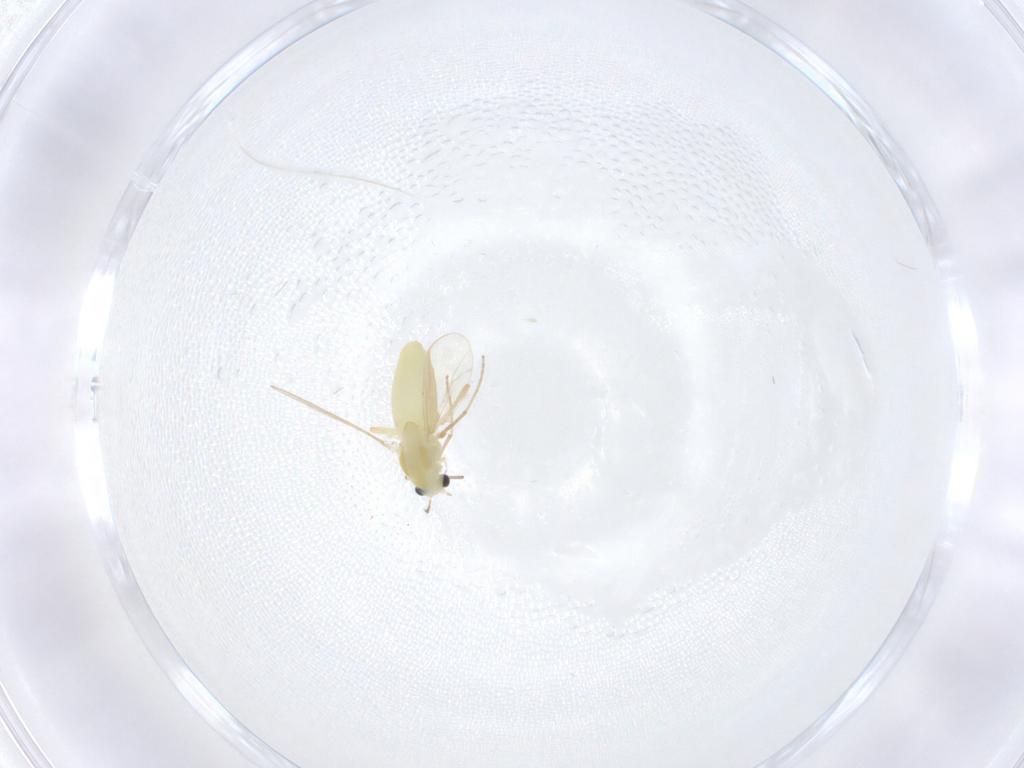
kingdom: Animalia
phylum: Arthropoda
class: Insecta
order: Diptera
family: Chironomidae
